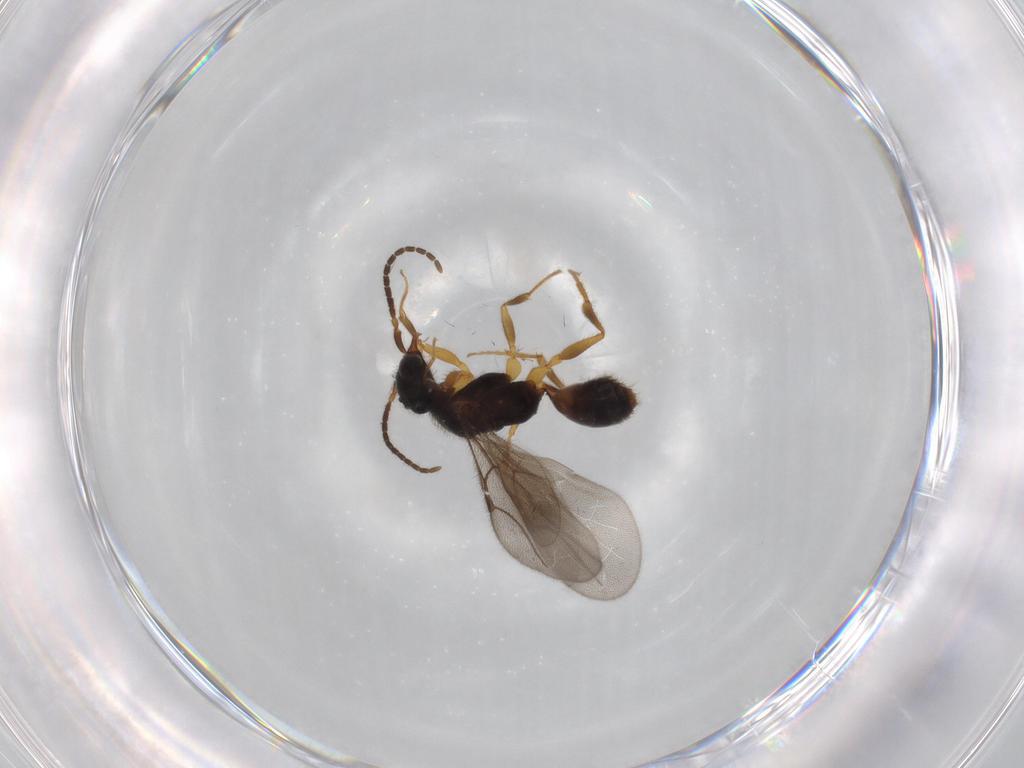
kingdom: Animalia
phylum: Arthropoda
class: Insecta
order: Hymenoptera
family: Bethylidae
